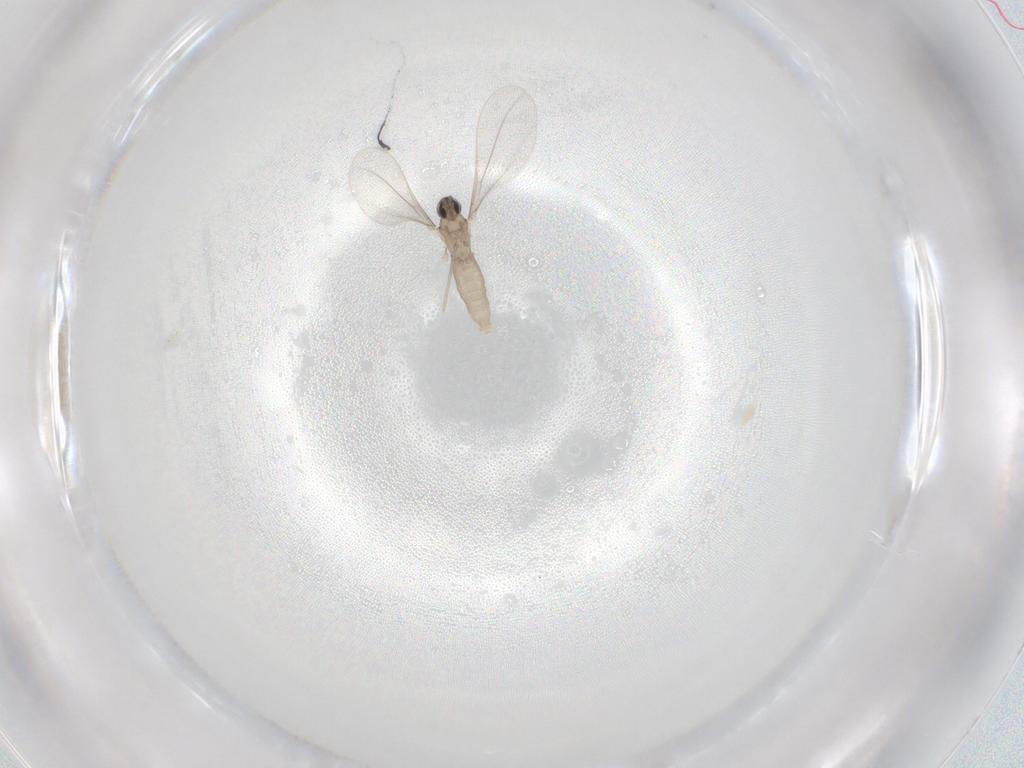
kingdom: Animalia
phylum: Arthropoda
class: Insecta
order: Diptera
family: Cecidomyiidae
